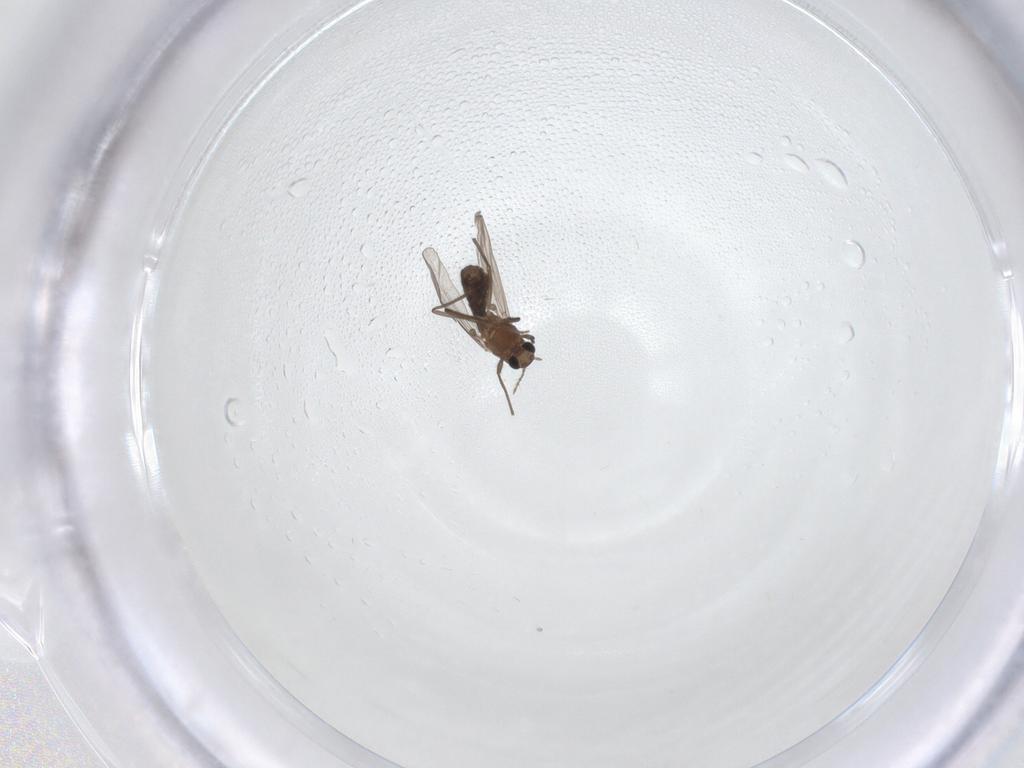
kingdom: Animalia
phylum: Arthropoda
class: Insecta
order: Diptera
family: Chironomidae
